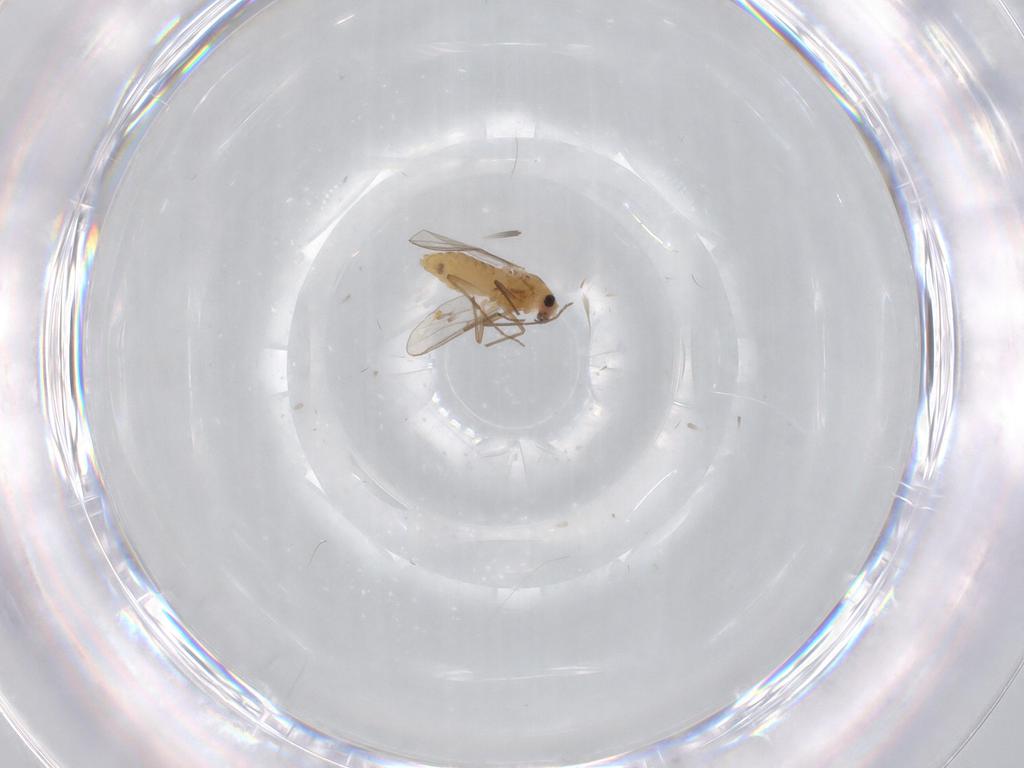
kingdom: Animalia
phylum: Arthropoda
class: Insecta
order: Diptera
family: Chironomidae
